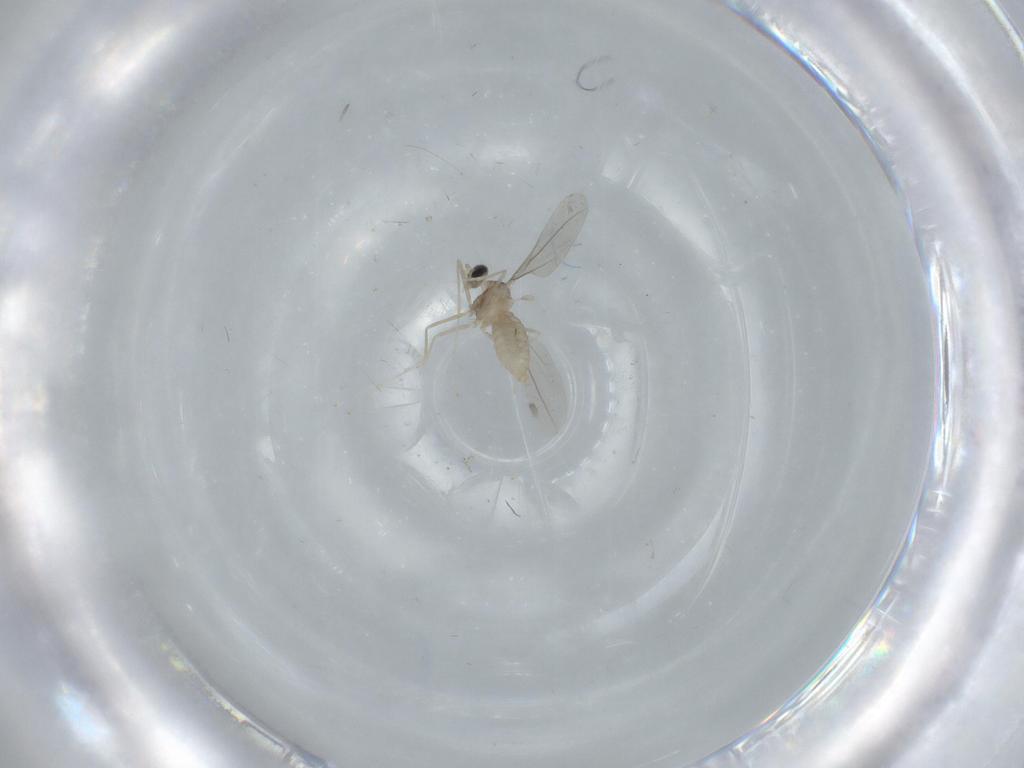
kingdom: Animalia
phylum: Arthropoda
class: Insecta
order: Diptera
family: Cecidomyiidae
